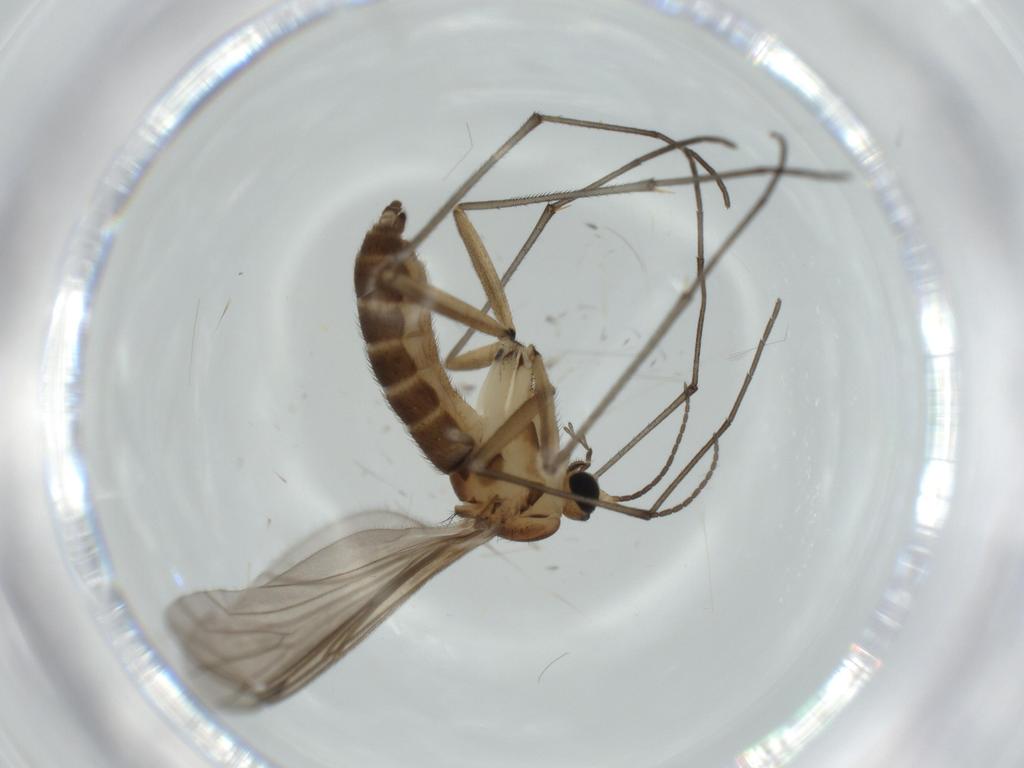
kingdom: Animalia
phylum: Arthropoda
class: Insecta
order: Diptera
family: Sciaridae
